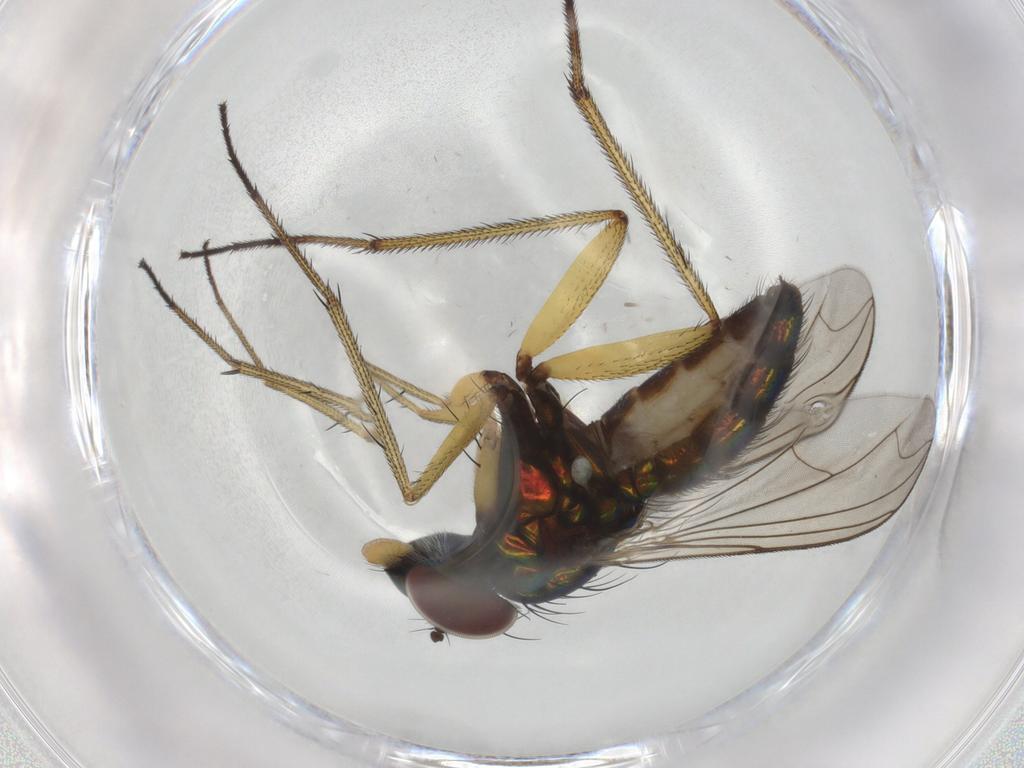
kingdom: Animalia
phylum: Arthropoda
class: Insecta
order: Diptera
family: Dolichopodidae
